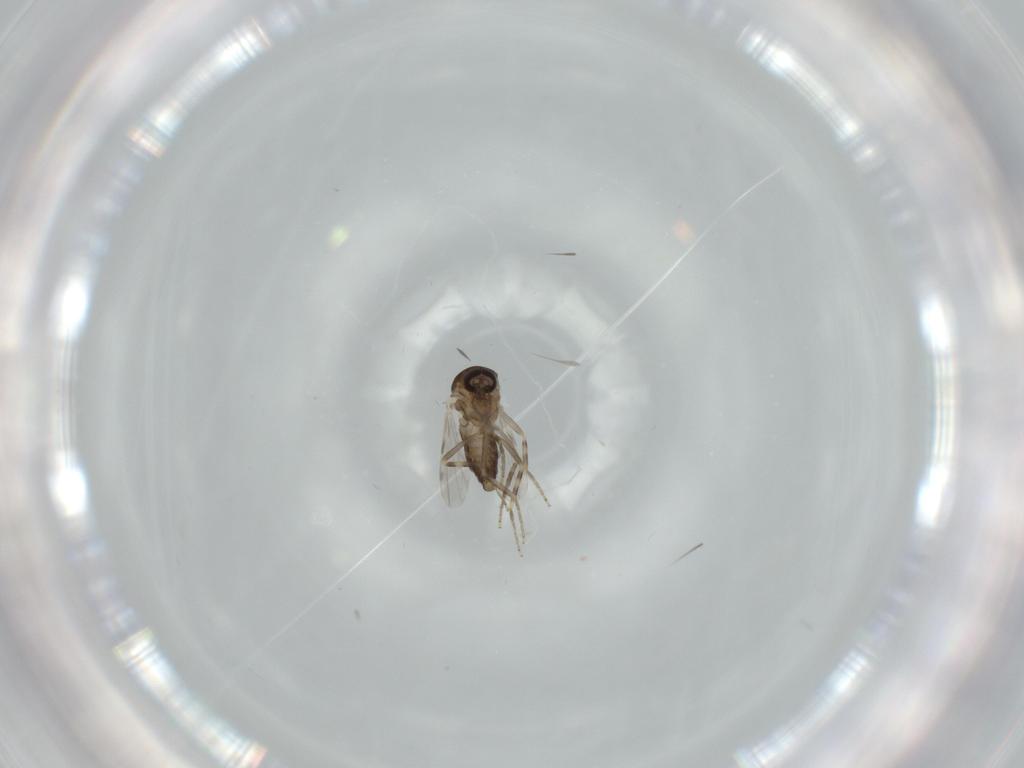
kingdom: Animalia
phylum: Arthropoda
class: Insecta
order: Diptera
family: Ceratopogonidae
